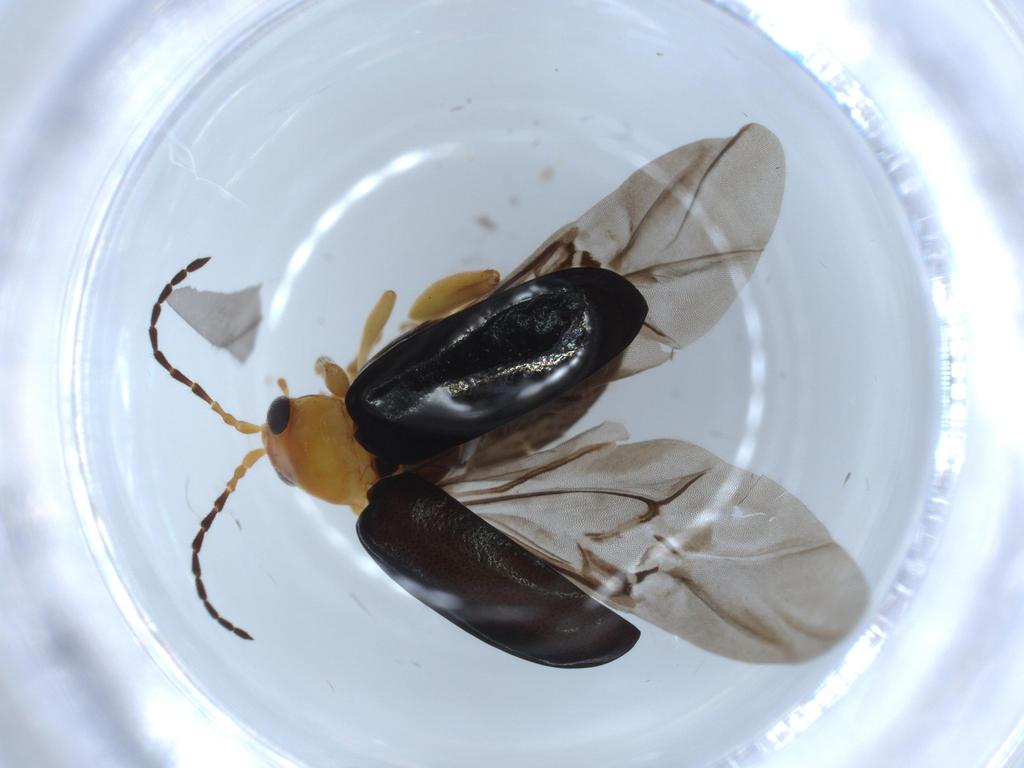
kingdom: Animalia
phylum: Arthropoda
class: Insecta
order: Coleoptera
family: Chrysomelidae
